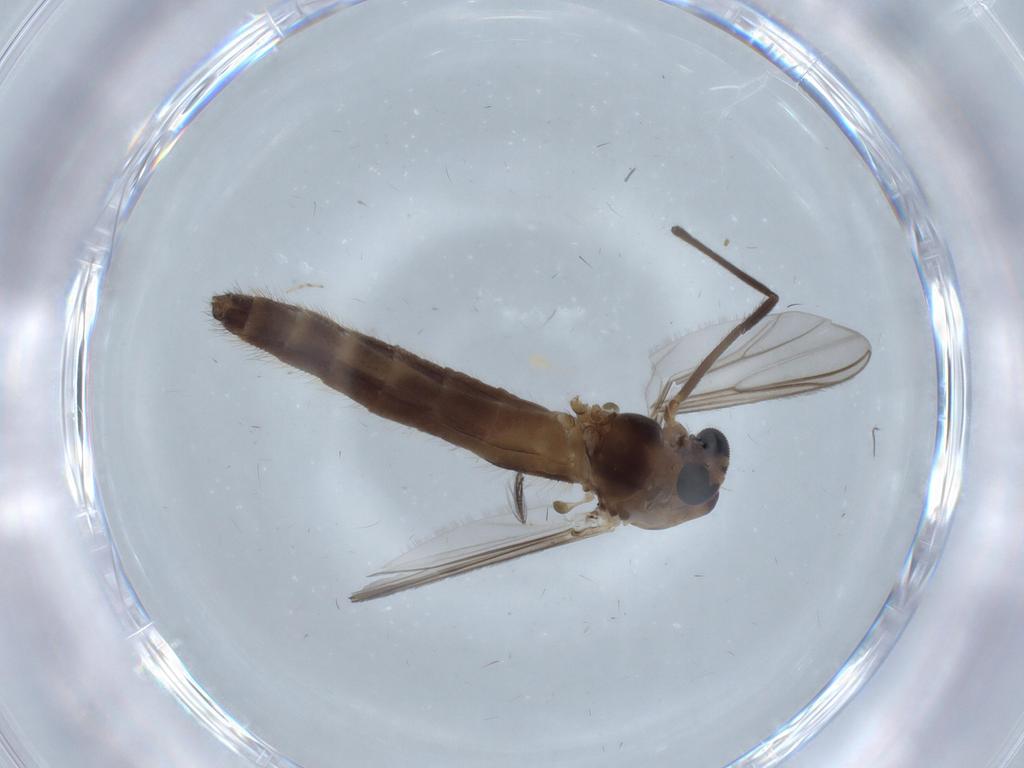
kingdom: Animalia
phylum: Arthropoda
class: Insecta
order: Diptera
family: Chironomidae
